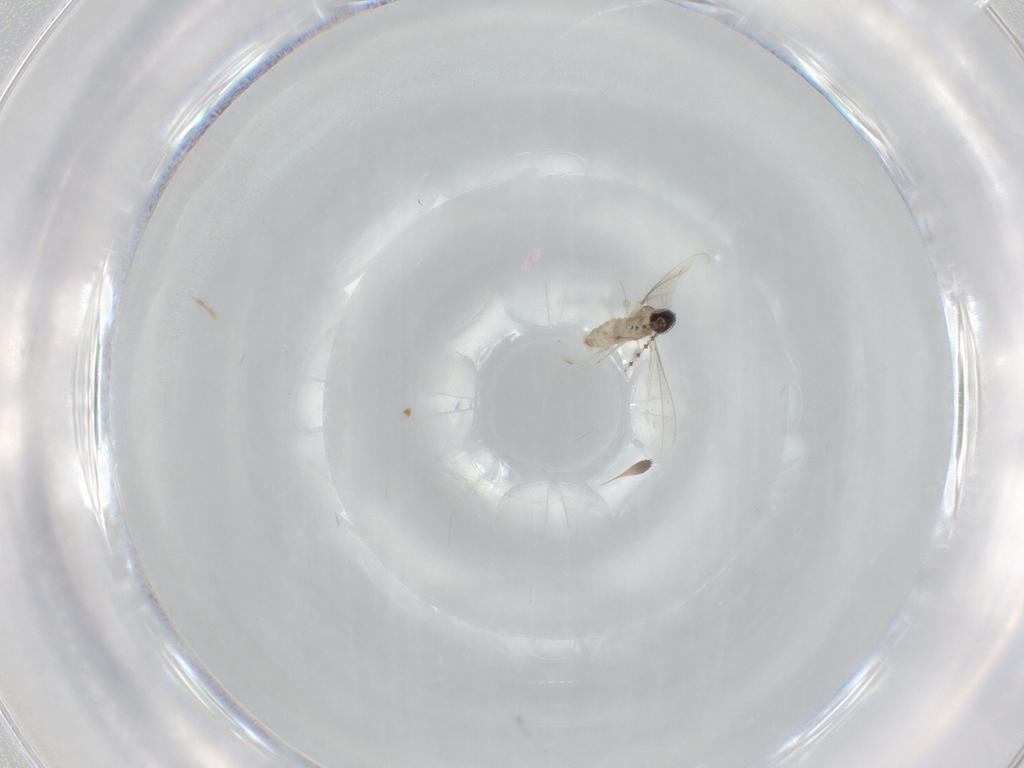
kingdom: Animalia
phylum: Arthropoda
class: Insecta
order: Diptera
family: Cecidomyiidae
